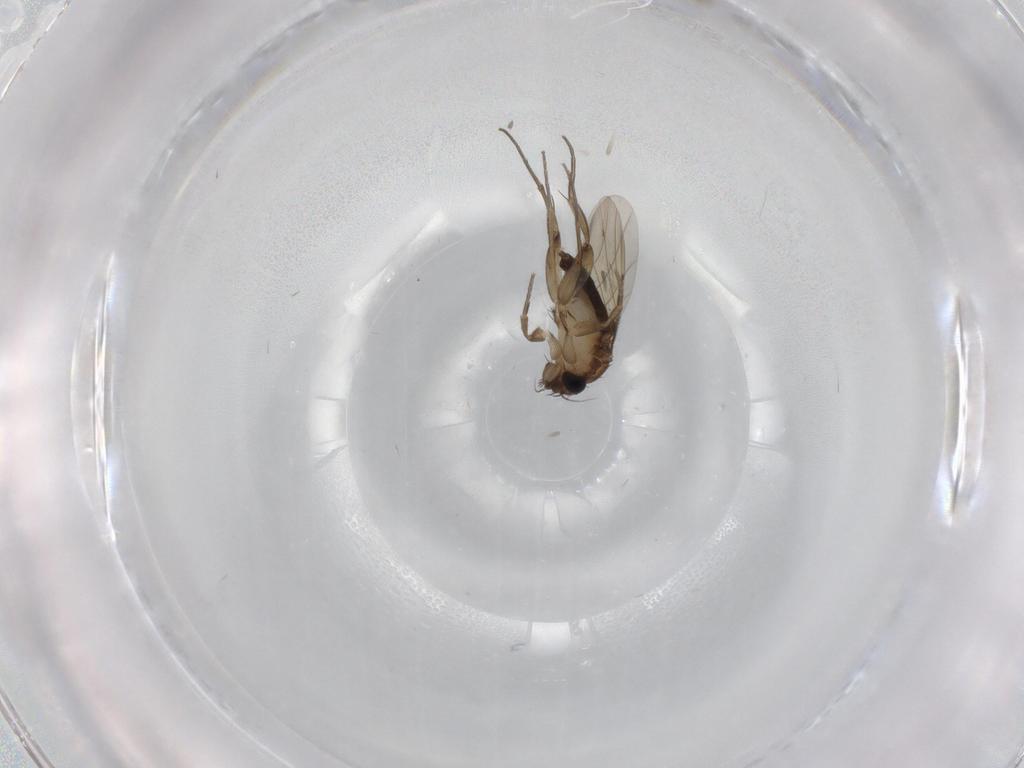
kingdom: Animalia
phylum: Arthropoda
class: Insecta
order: Diptera
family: Phoridae
